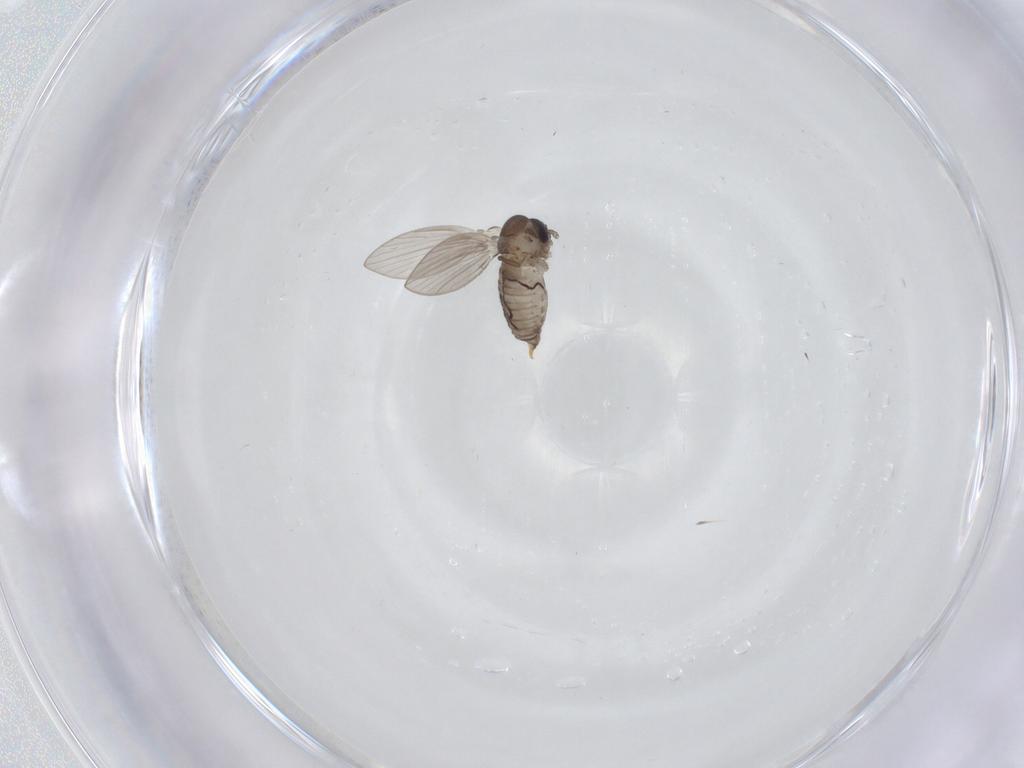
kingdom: Animalia
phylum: Arthropoda
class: Insecta
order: Diptera
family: Psychodidae
